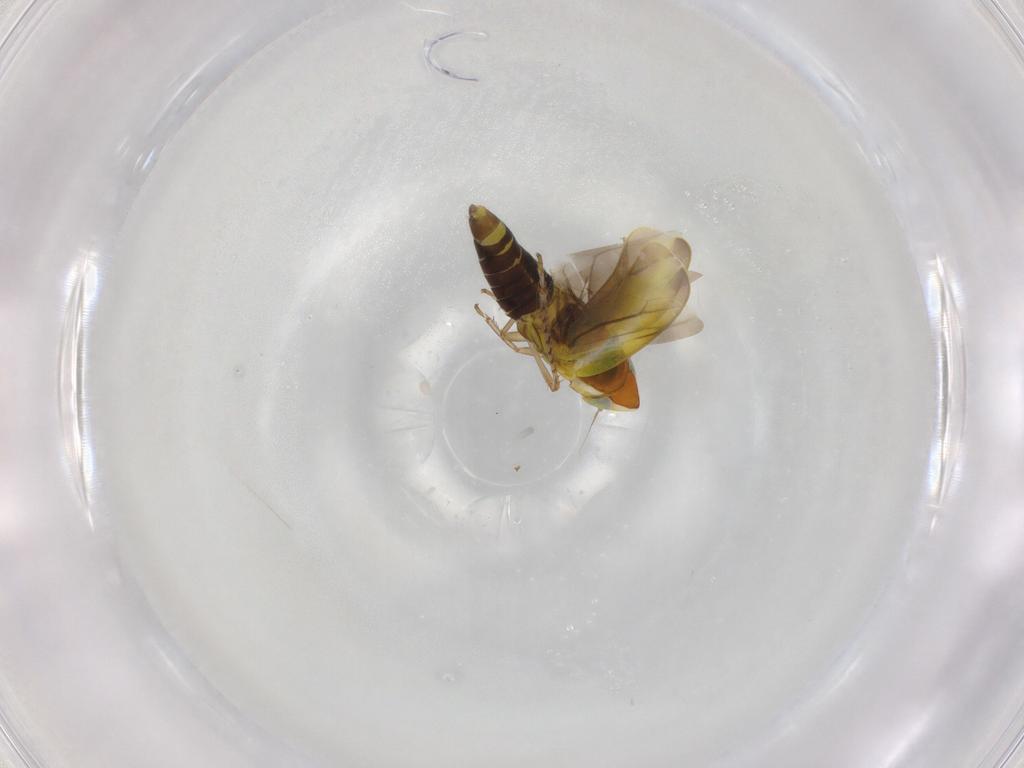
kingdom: Animalia
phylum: Arthropoda
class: Insecta
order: Hemiptera
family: Cicadellidae
